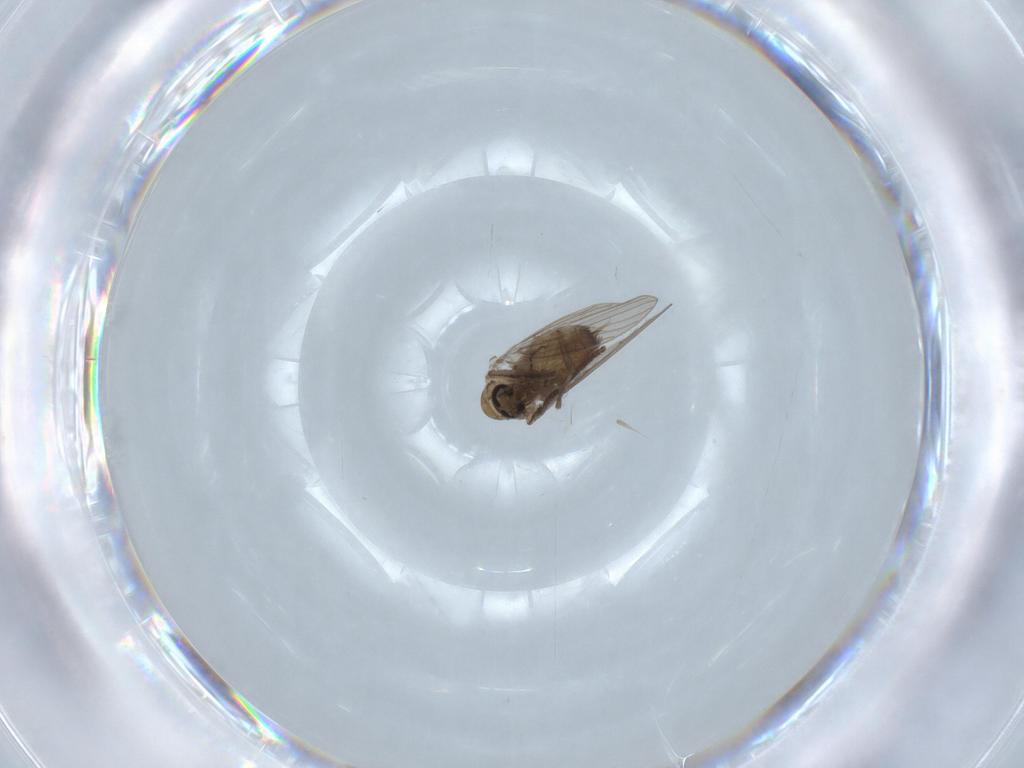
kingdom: Animalia
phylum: Arthropoda
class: Insecta
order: Diptera
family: Psychodidae
